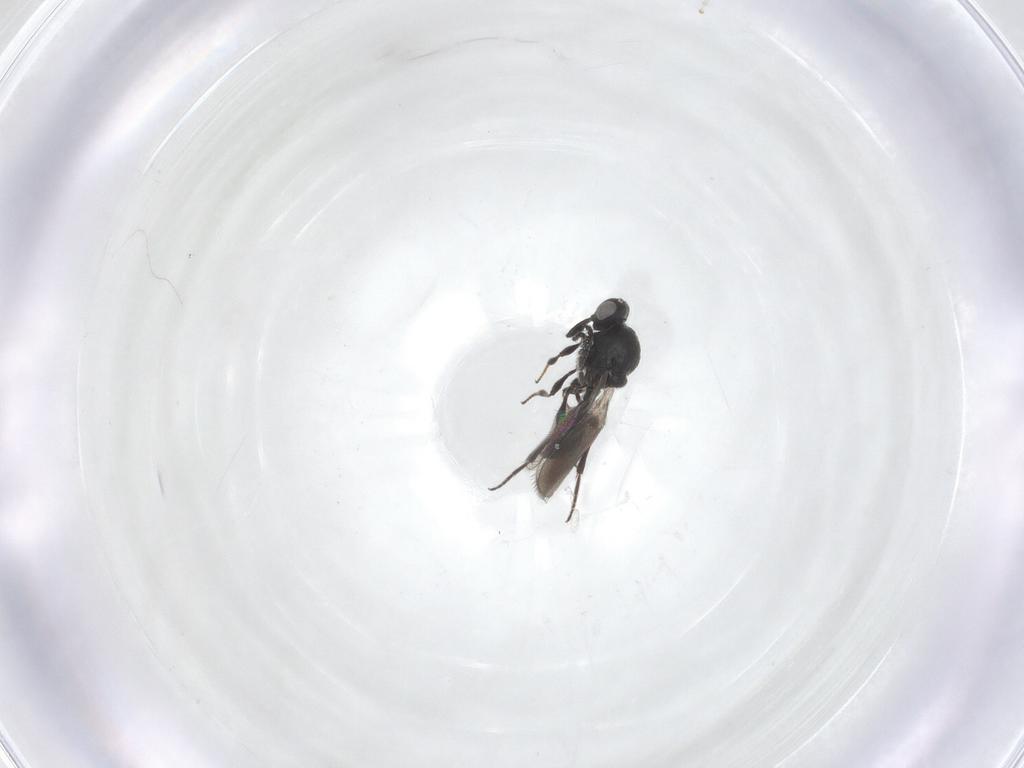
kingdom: Animalia
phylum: Arthropoda
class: Insecta
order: Hymenoptera
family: Platygastridae
